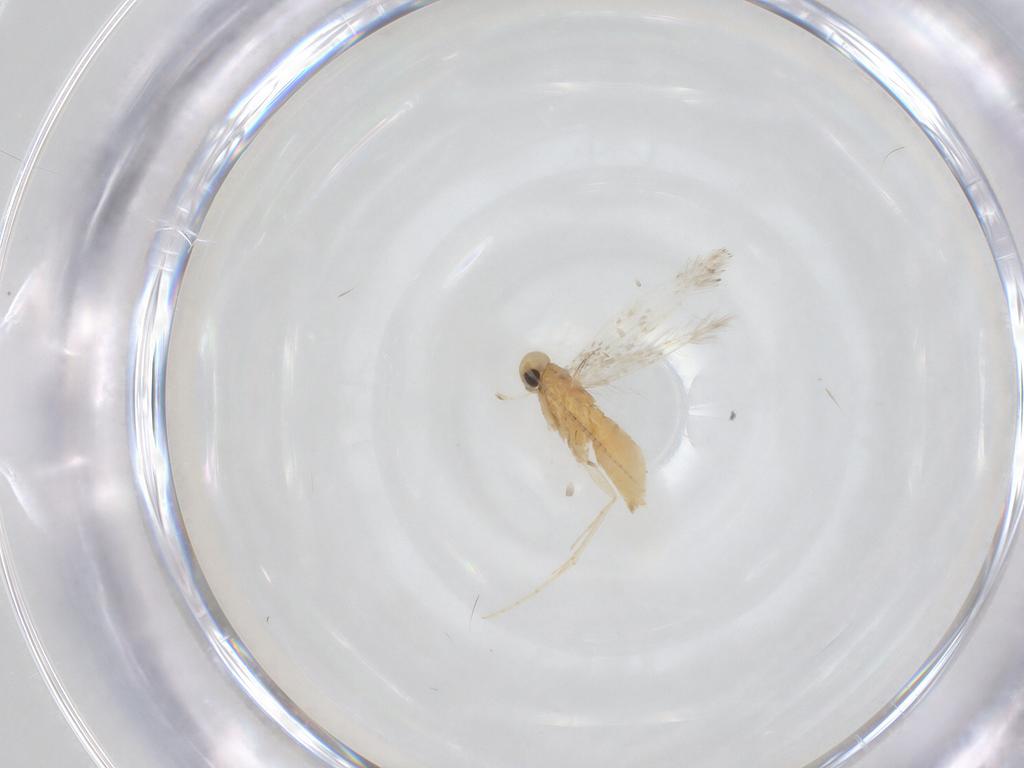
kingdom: Animalia
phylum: Arthropoda
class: Insecta
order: Lepidoptera
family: Gracillariidae
